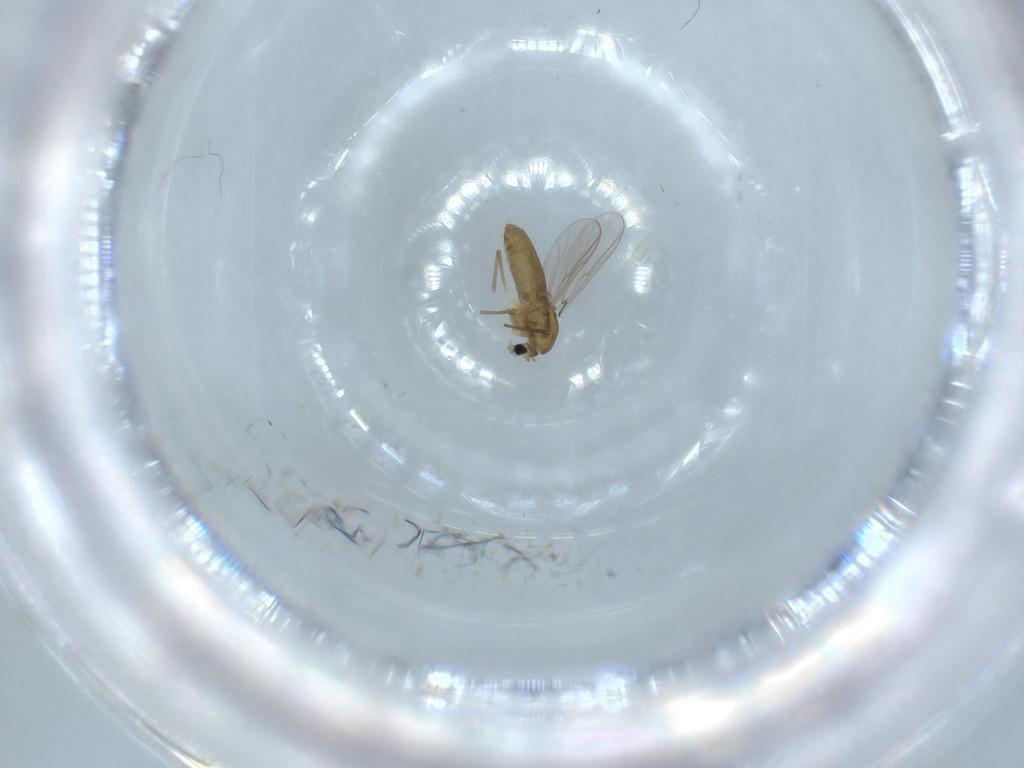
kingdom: Animalia
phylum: Arthropoda
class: Insecta
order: Diptera
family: Chironomidae
